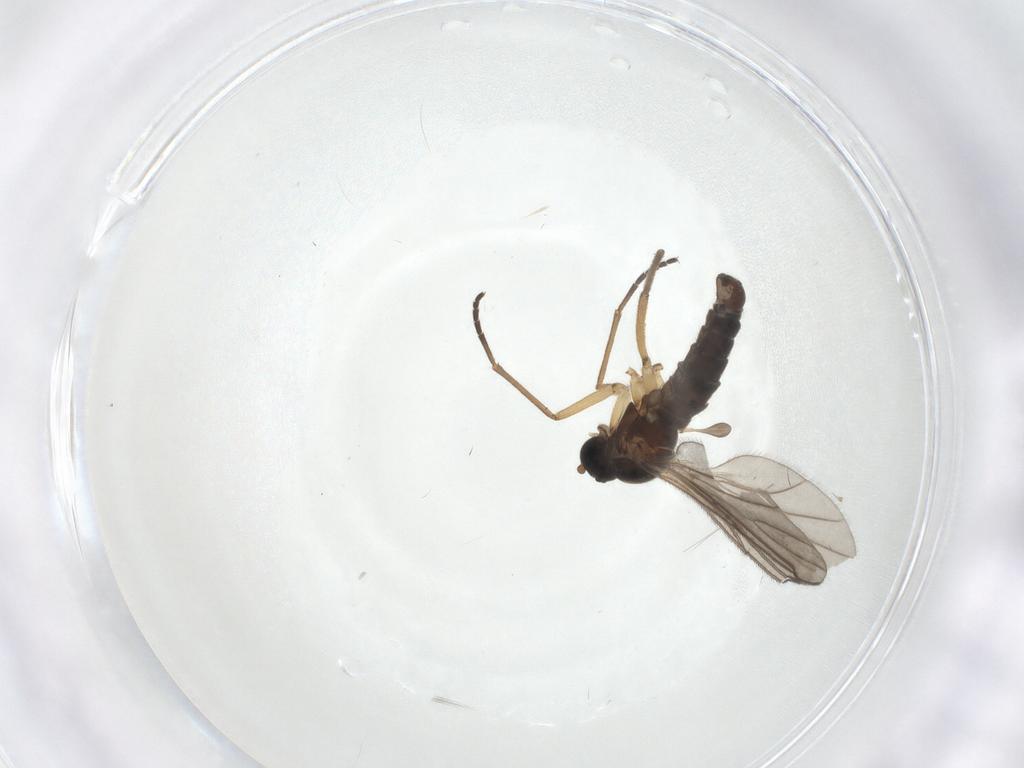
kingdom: Animalia
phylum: Arthropoda
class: Insecta
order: Diptera
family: Sciaridae
